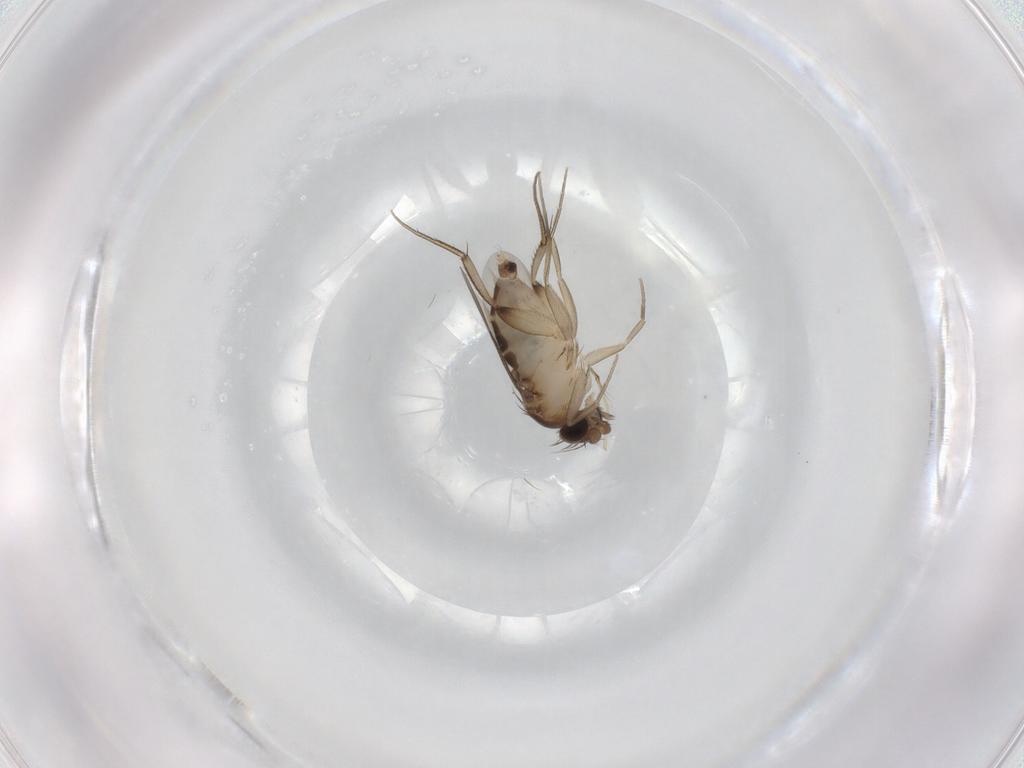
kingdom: Animalia
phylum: Arthropoda
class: Insecta
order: Diptera
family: Phoridae
